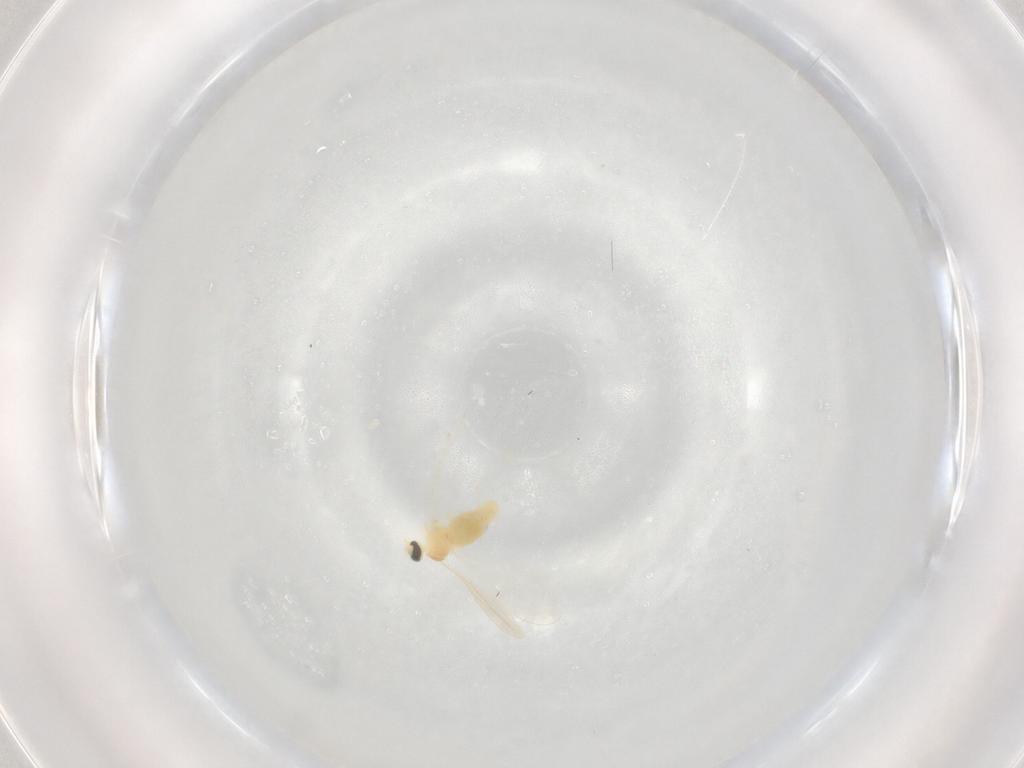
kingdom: Animalia
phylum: Arthropoda
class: Insecta
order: Diptera
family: Cecidomyiidae
